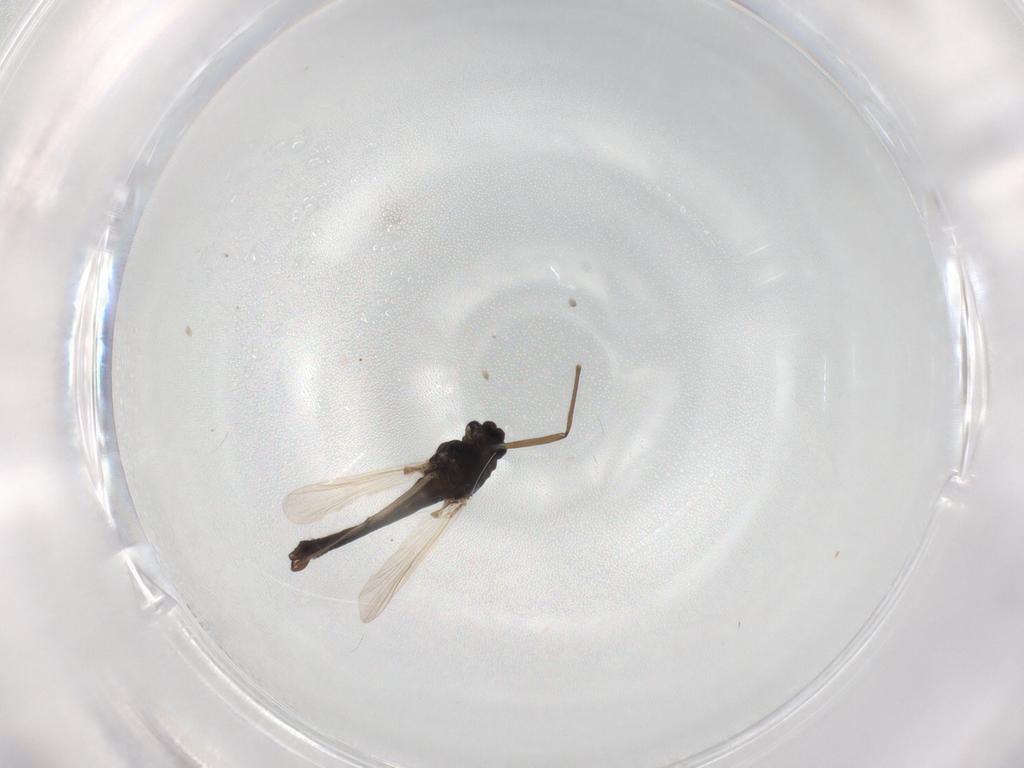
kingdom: Animalia
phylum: Arthropoda
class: Insecta
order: Diptera
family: Chironomidae
